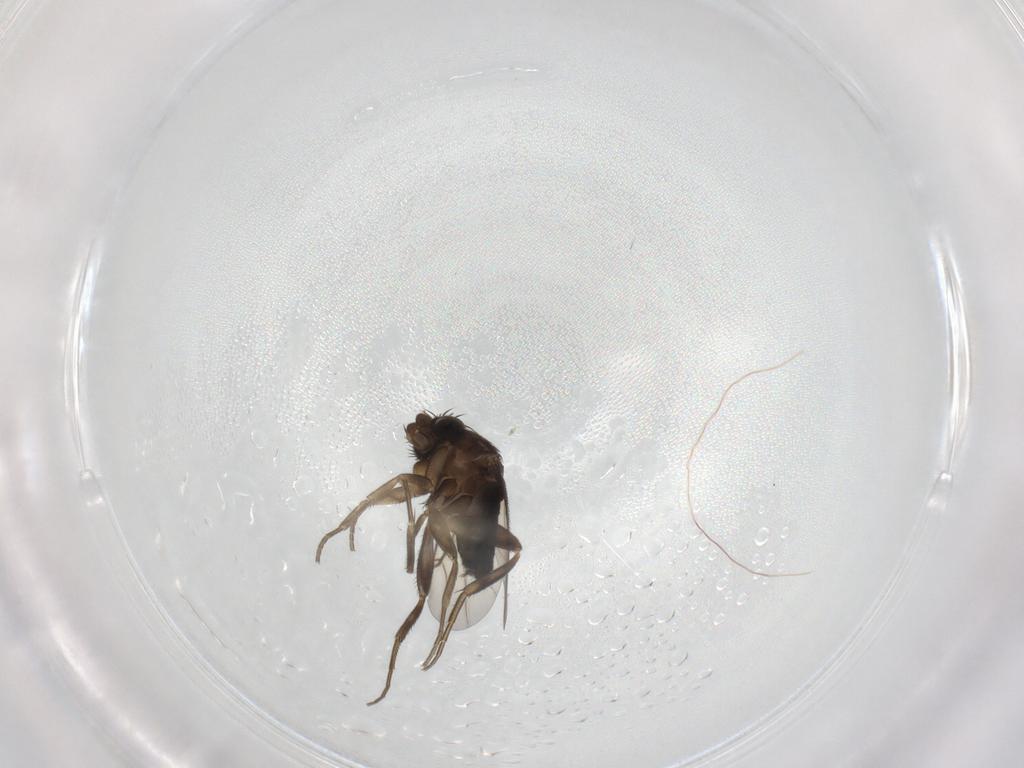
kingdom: Animalia
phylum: Arthropoda
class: Insecta
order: Diptera
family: Phoridae
